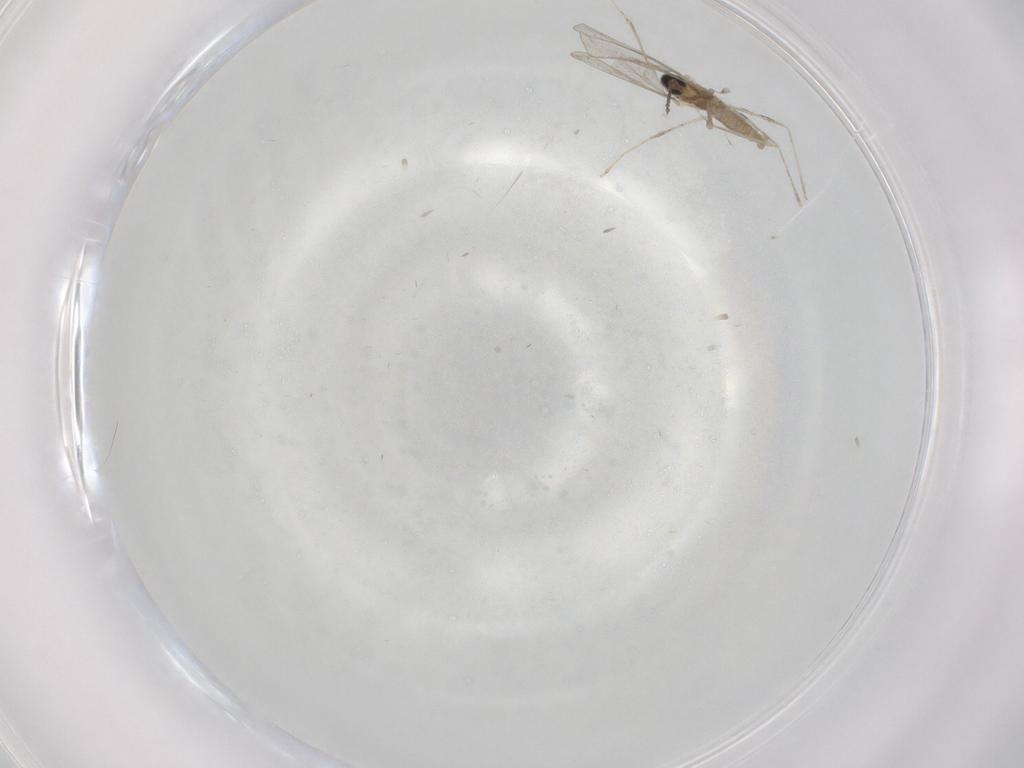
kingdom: Animalia
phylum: Arthropoda
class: Insecta
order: Diptera
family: Cecidomyiidae
